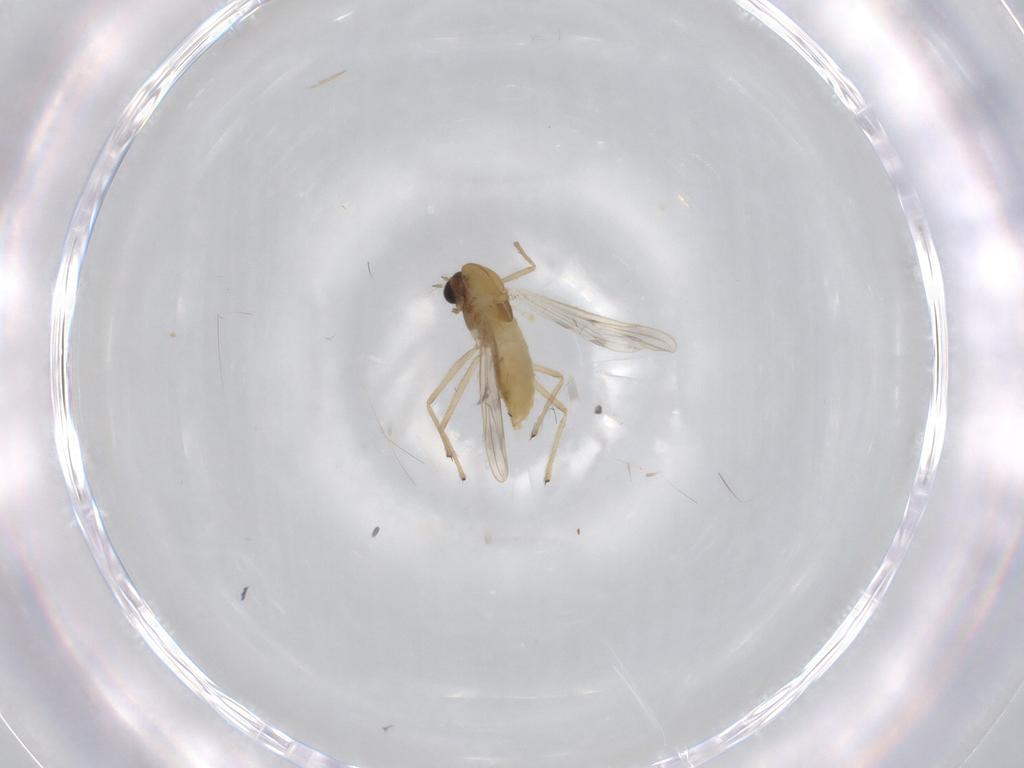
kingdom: Animalia
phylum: Arthropoda
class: Insecta
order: Diptera
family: Chironomidae
